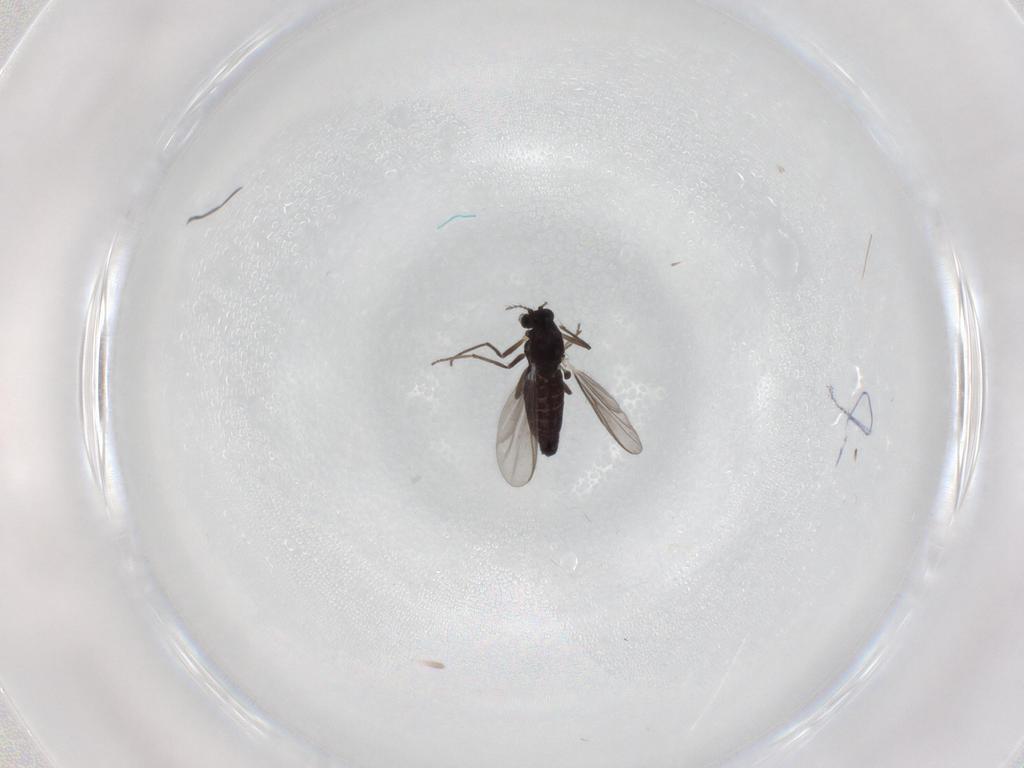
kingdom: Animalia
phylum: Arthropoda
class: Insecta
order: Diptera
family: Chironomidae
